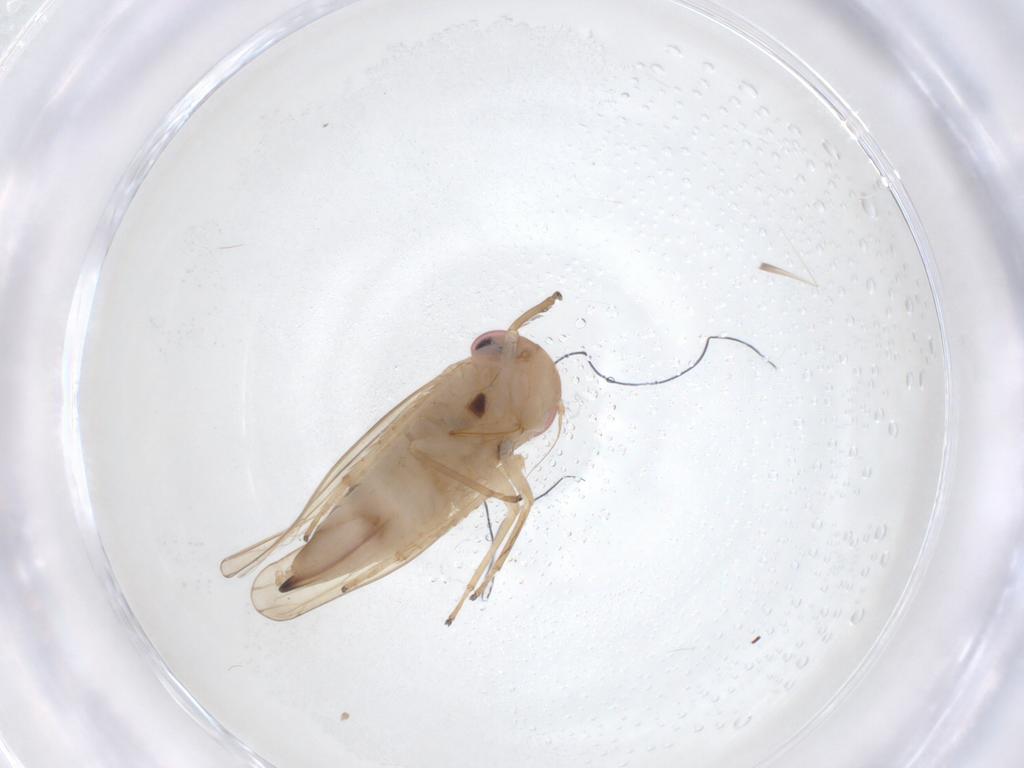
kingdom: Animalia
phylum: Arthropoda
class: Insecta
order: Hemiptera
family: Cicadellidae
